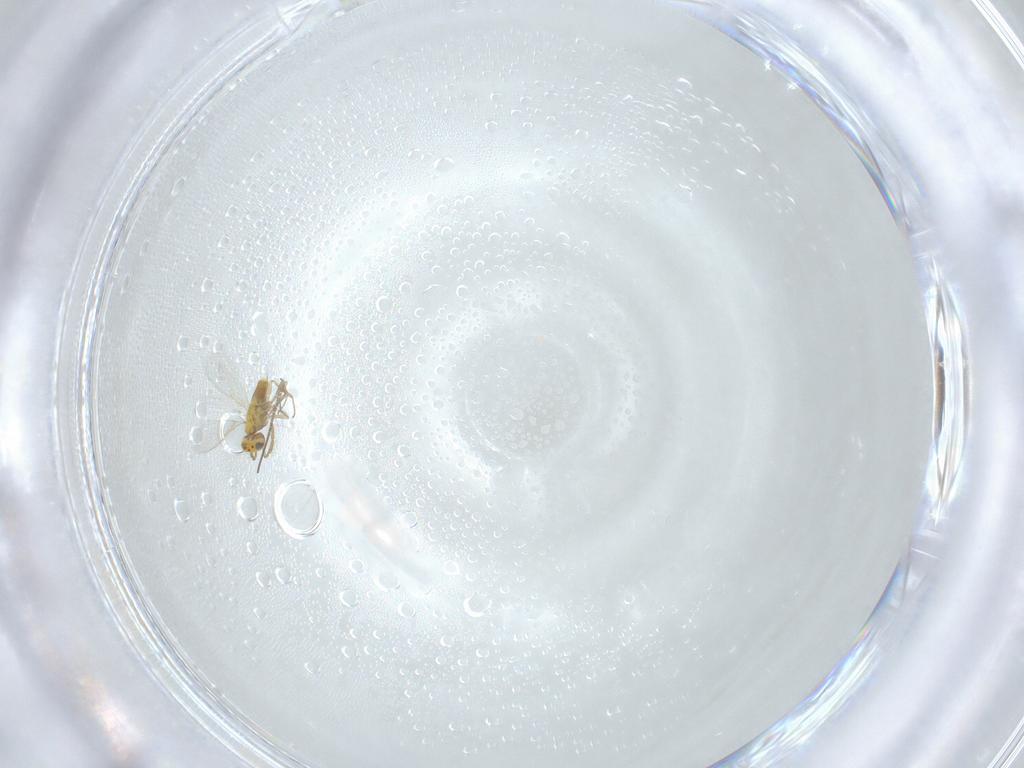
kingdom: Animalia
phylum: Arthropoda
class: Insecta
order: Hymenoptera
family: Aphelinidae
